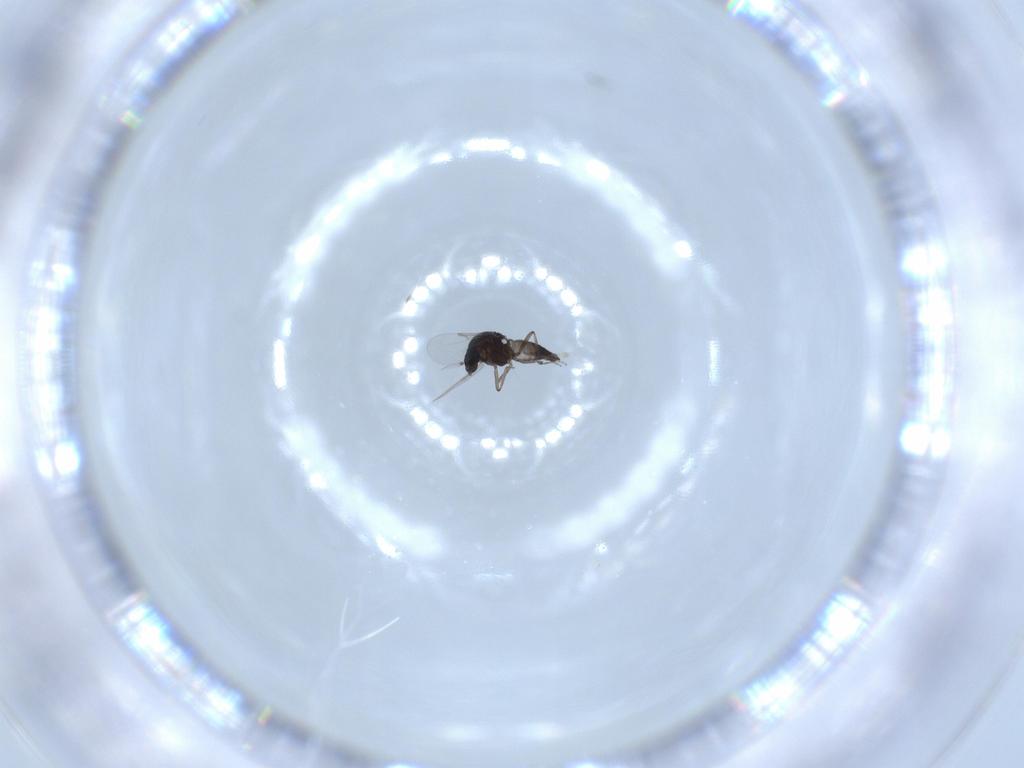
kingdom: Animalia
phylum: Arthropoda
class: Insecta
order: Diptera
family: Ceratopogonidae
